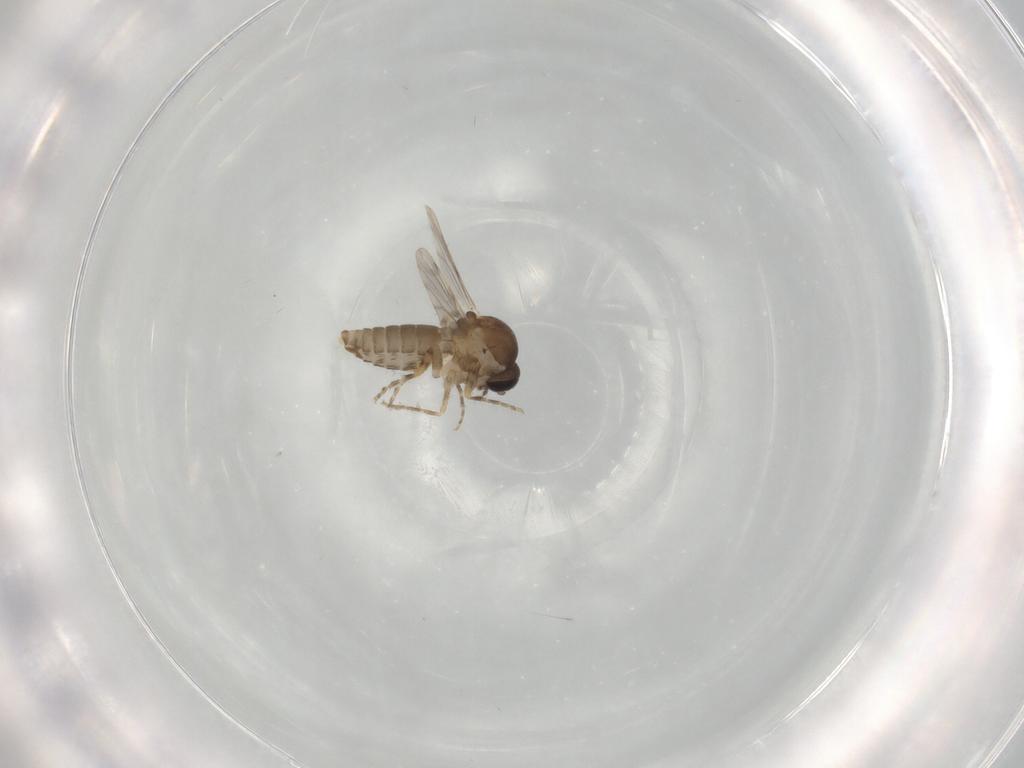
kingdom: Animalia
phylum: Arthropoda
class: Insecta
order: Diptera
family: Ceratopogonidae
